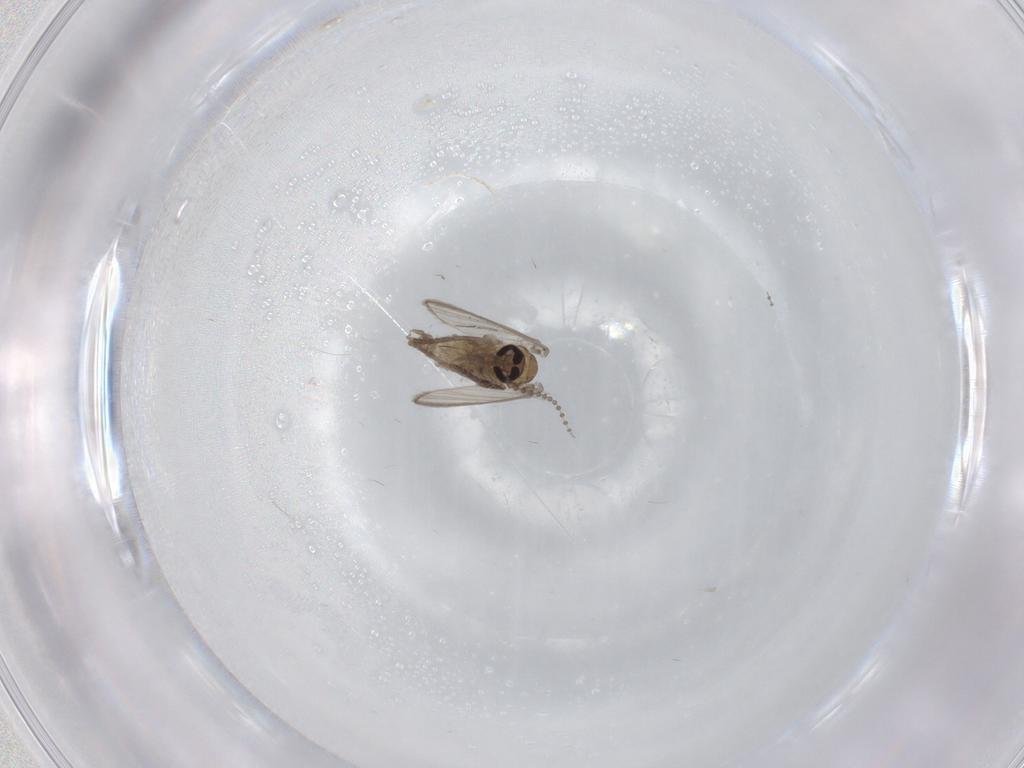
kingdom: Animalia
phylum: Arthropoda
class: Insecta
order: Diptera
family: Psychodidae
